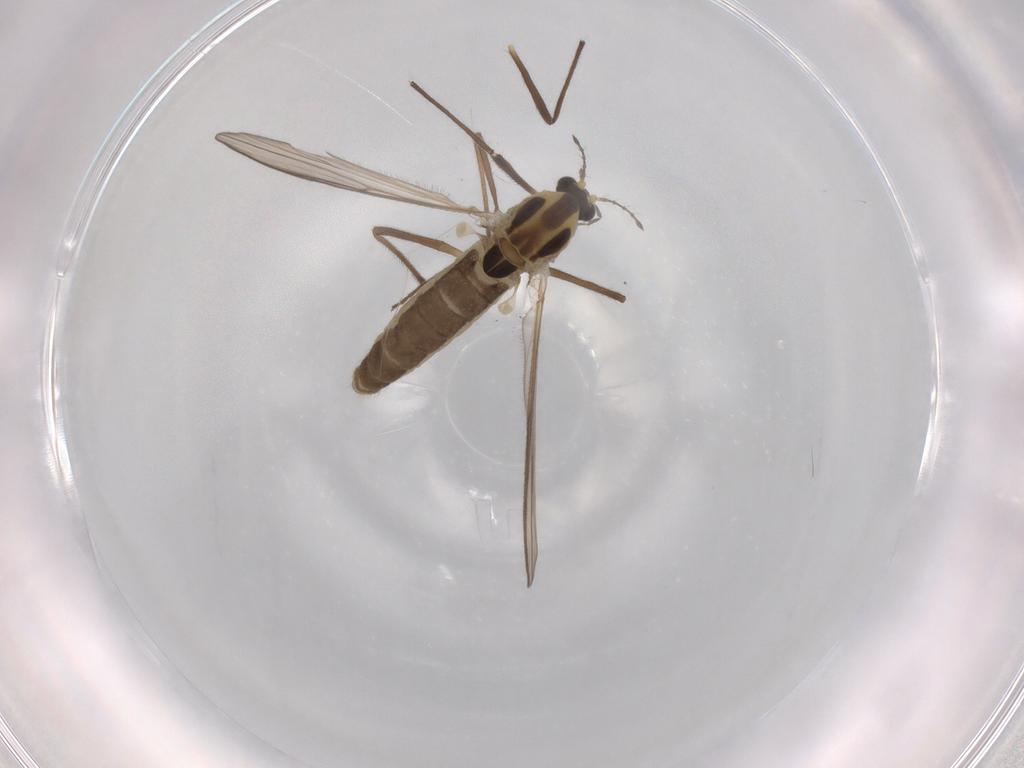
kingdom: Animalia
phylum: Arthropoda
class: Insecta
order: Diptera
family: Chironomidae
